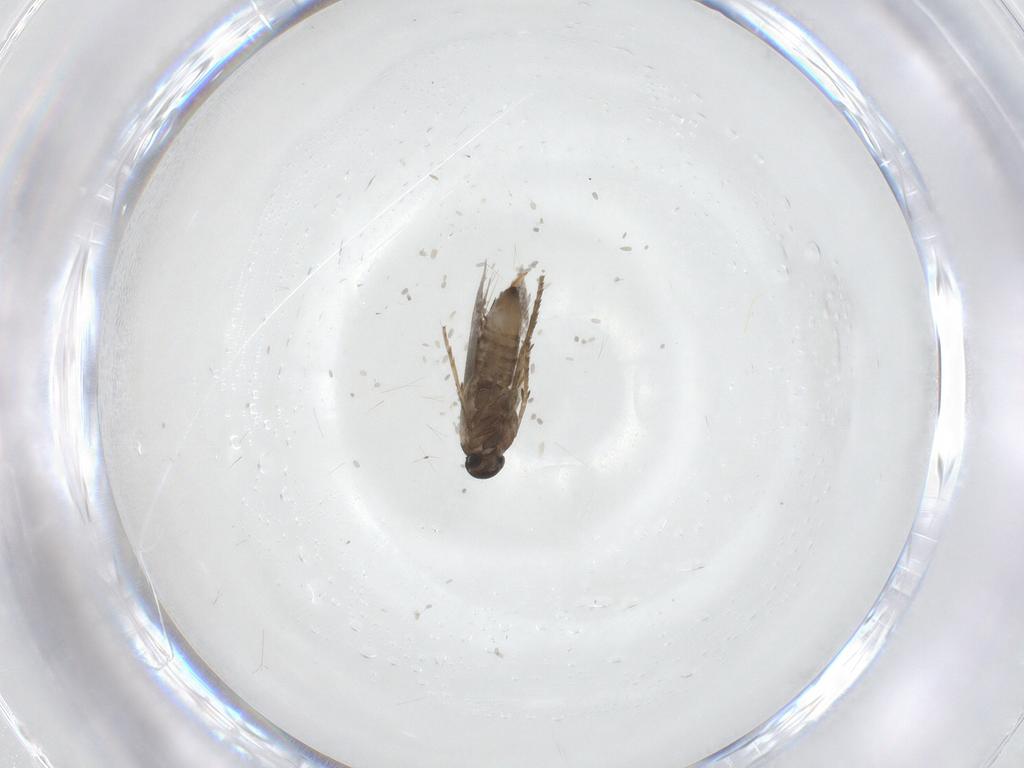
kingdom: Animalia
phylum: Arthropoda
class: Insecta
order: Lepidoptera
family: Heliozelidae
